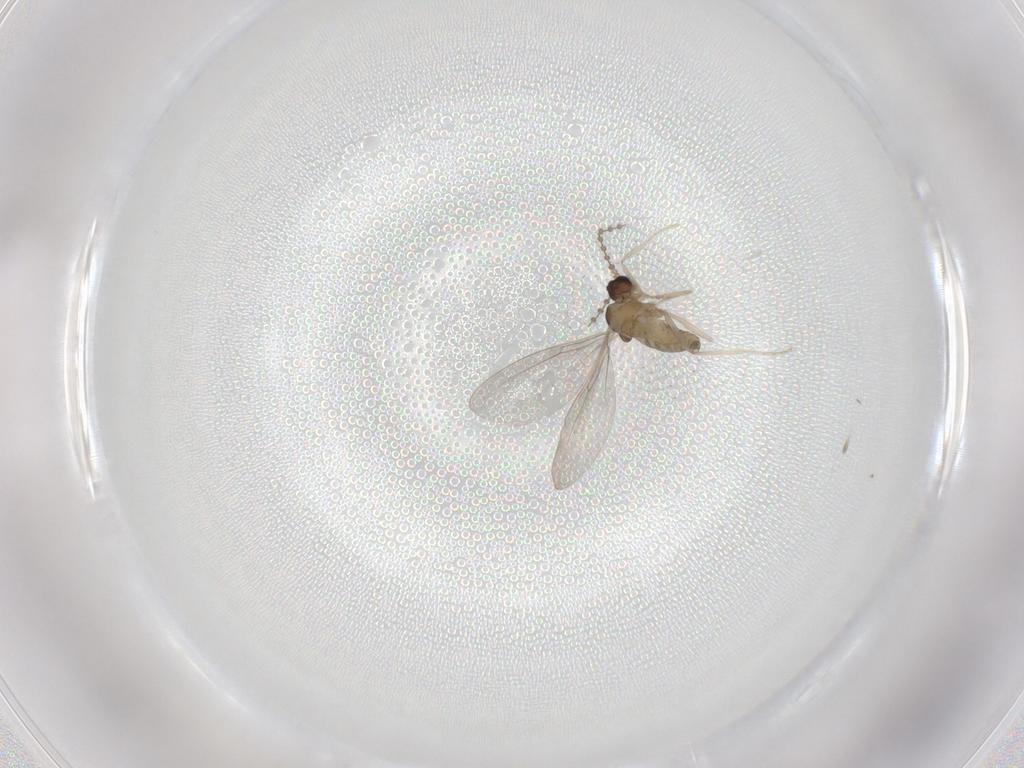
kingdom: Animalia
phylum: Arthropoda
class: Insecta
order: Diptera
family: Cecidomyiidae
